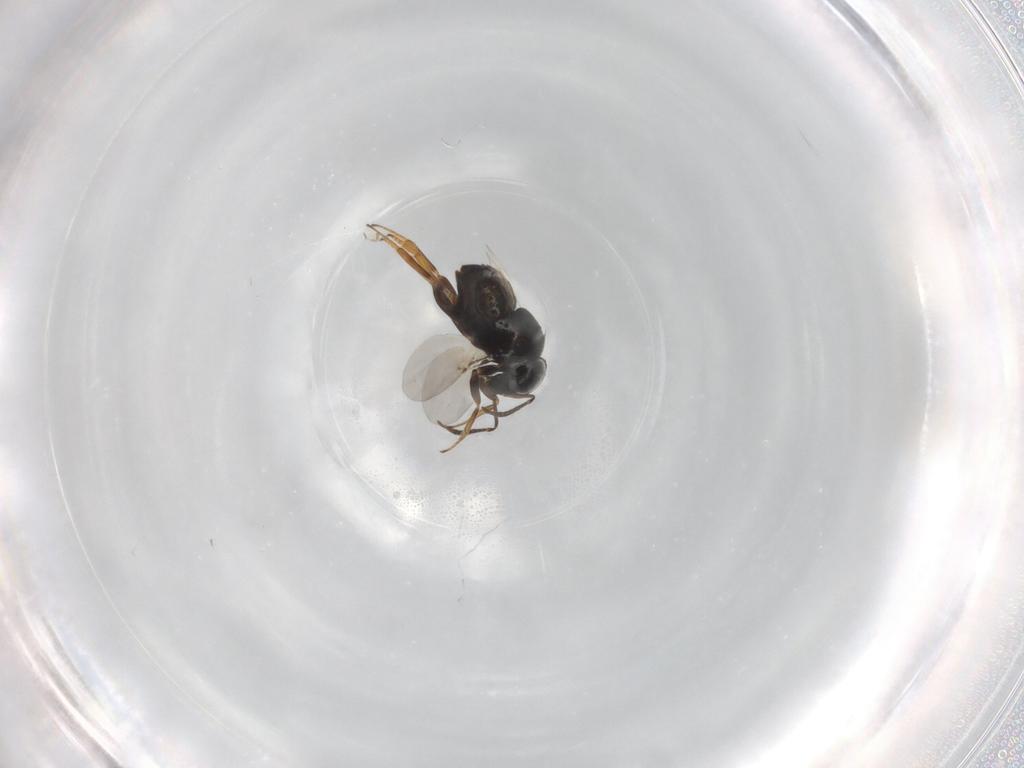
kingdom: Animalia
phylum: Arthropoda
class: Insecta
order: Hymenoptera
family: Encyrtidae
